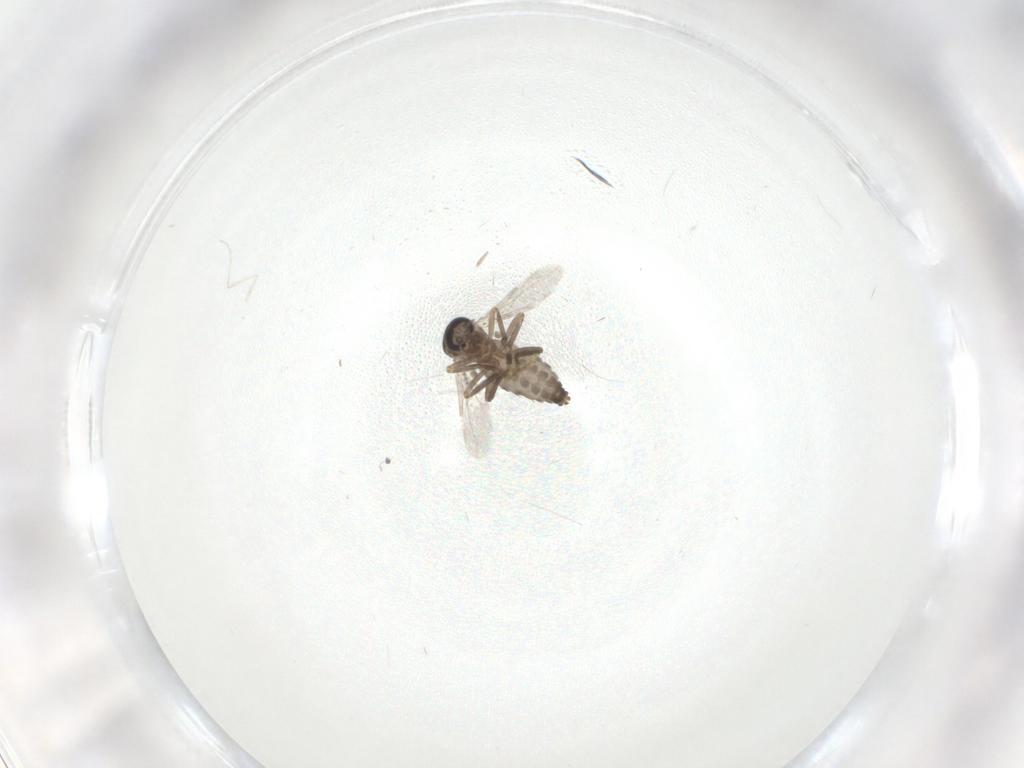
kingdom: Animalia
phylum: Arthropoda
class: Insecta
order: Diptera
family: Ceratopogonidae
